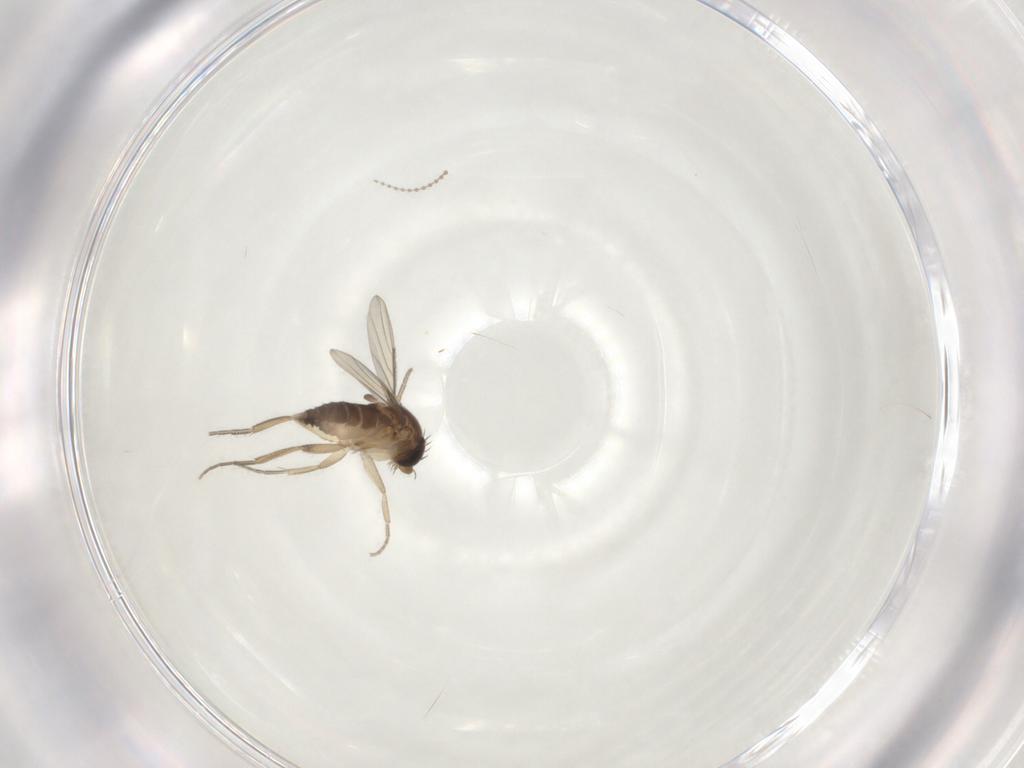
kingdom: Animalia
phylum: Arthropoda
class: Insecta
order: Diptera
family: Phoridae
